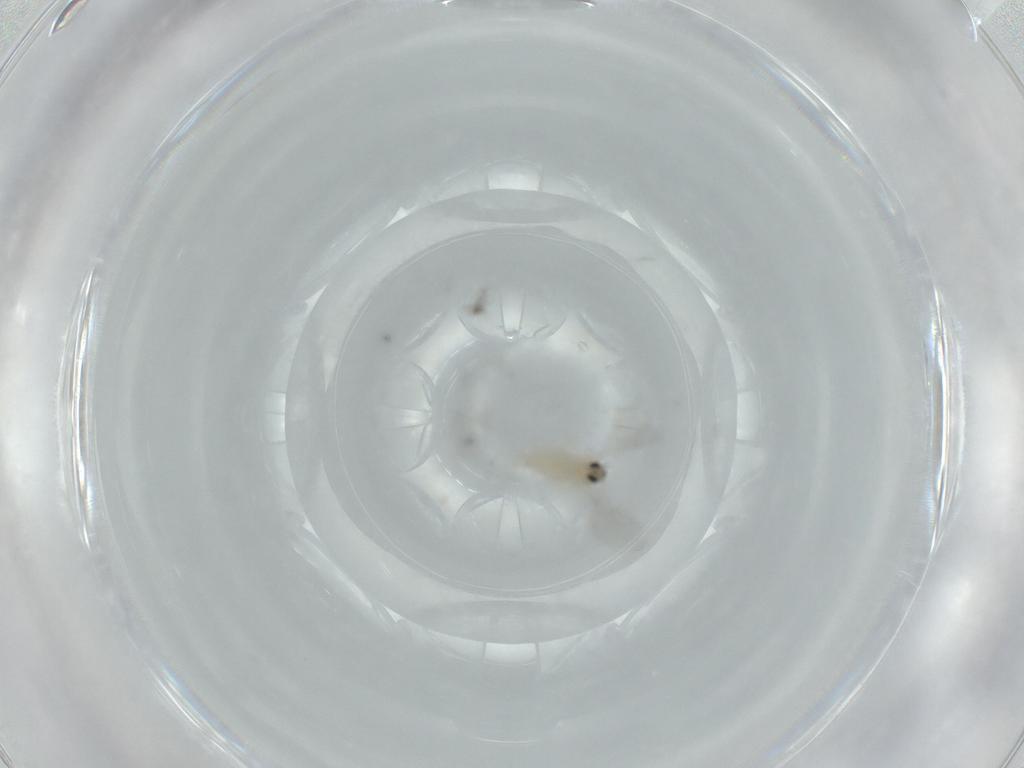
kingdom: Animalia
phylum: Arthropoda
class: Insecta
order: Diptera
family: Cecidomyiidae
